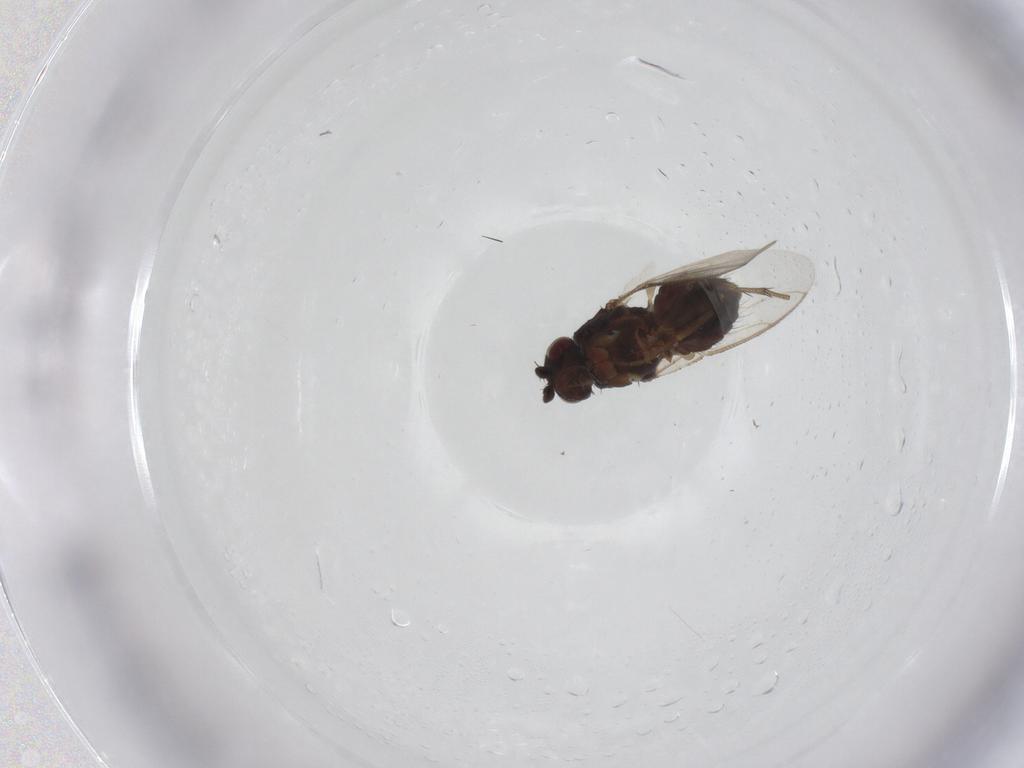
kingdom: Animalia
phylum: Arthropoda
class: Insecta
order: Diptera
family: Sphaeroceridae
